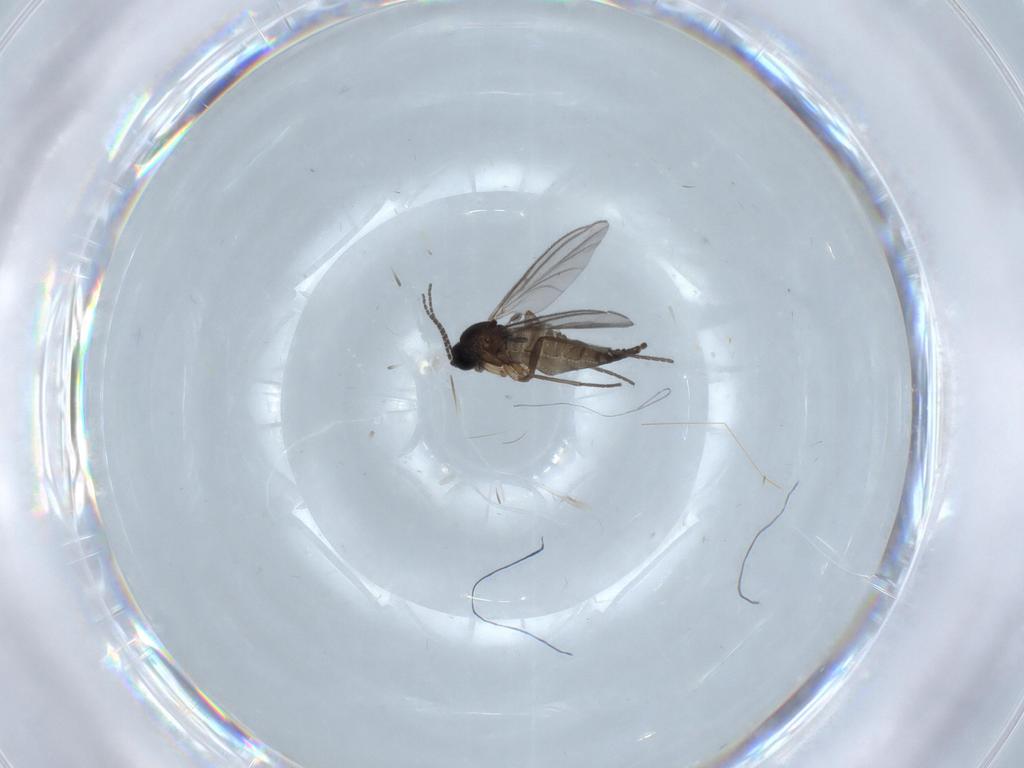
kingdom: Animalia
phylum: Arthropoda
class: Insecta
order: Diptera
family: Sciaridae
